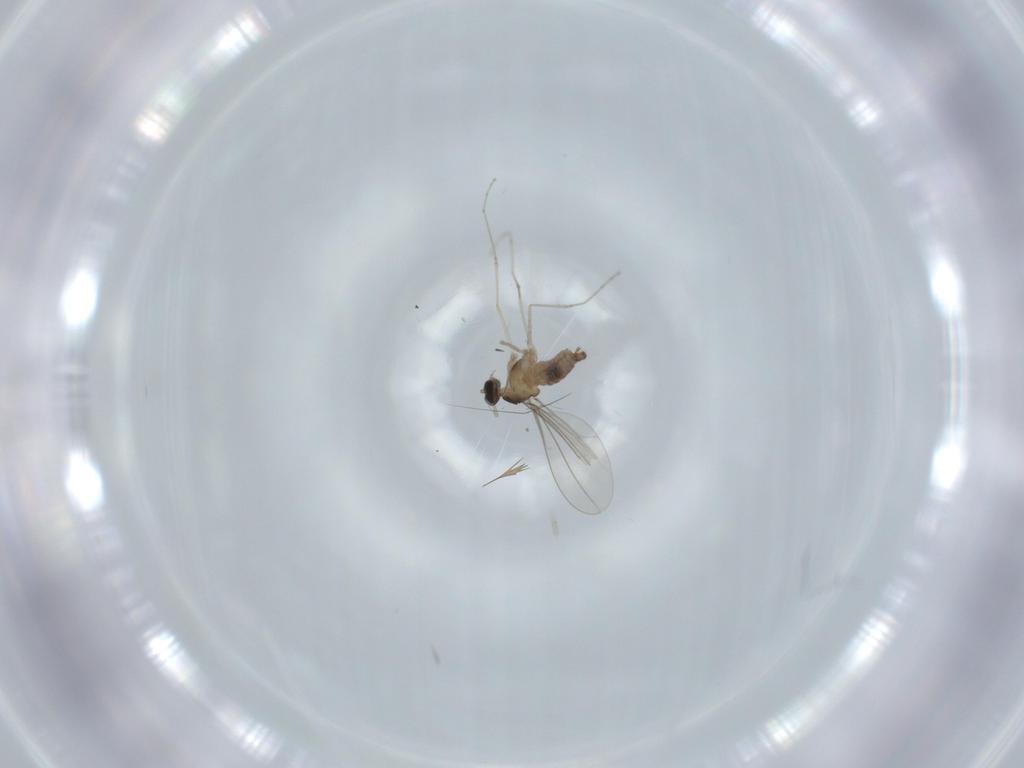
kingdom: Animalia
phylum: Arthropoda
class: Insecta
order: Diptera
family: Cecidomyiidae
